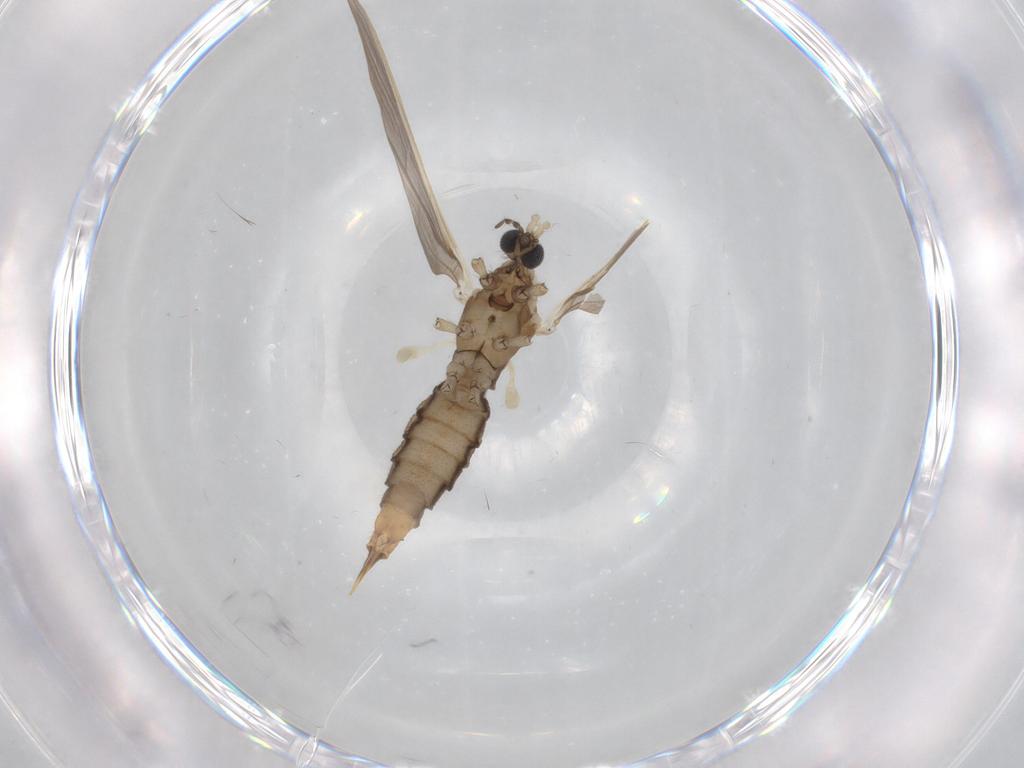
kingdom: Animalia
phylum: Arthropoda
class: Insecta
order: Diptera
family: Limoniidae
